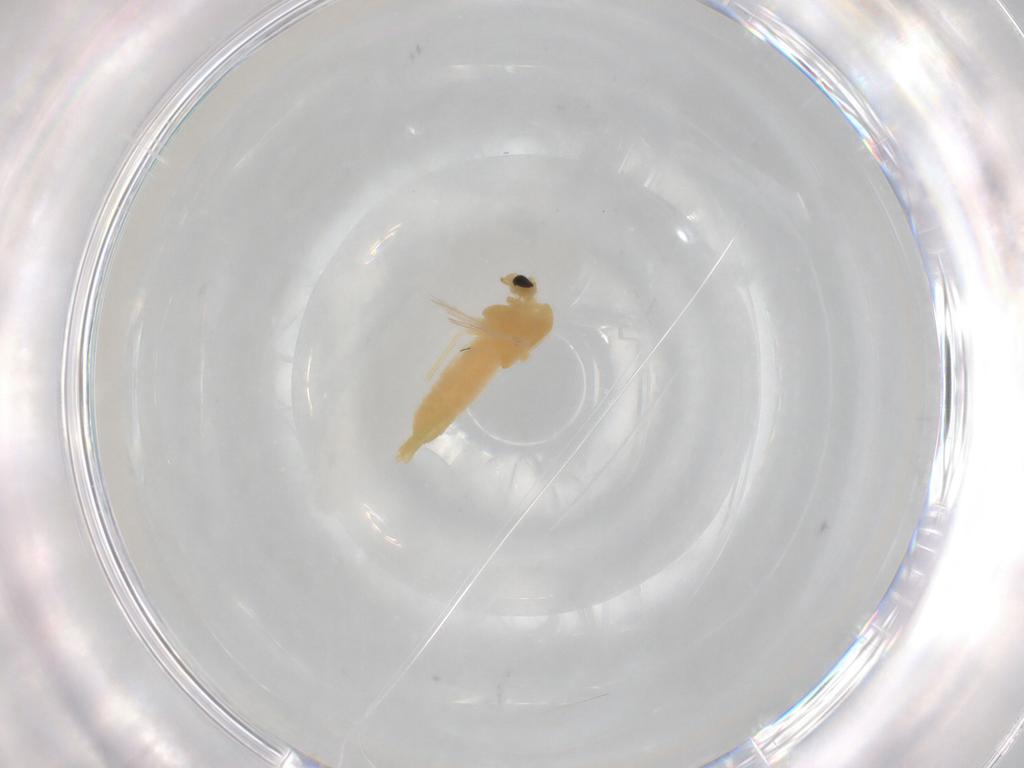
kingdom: Animalia
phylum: Arthropoda
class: Insecta
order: Diptera
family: Chironomidae
